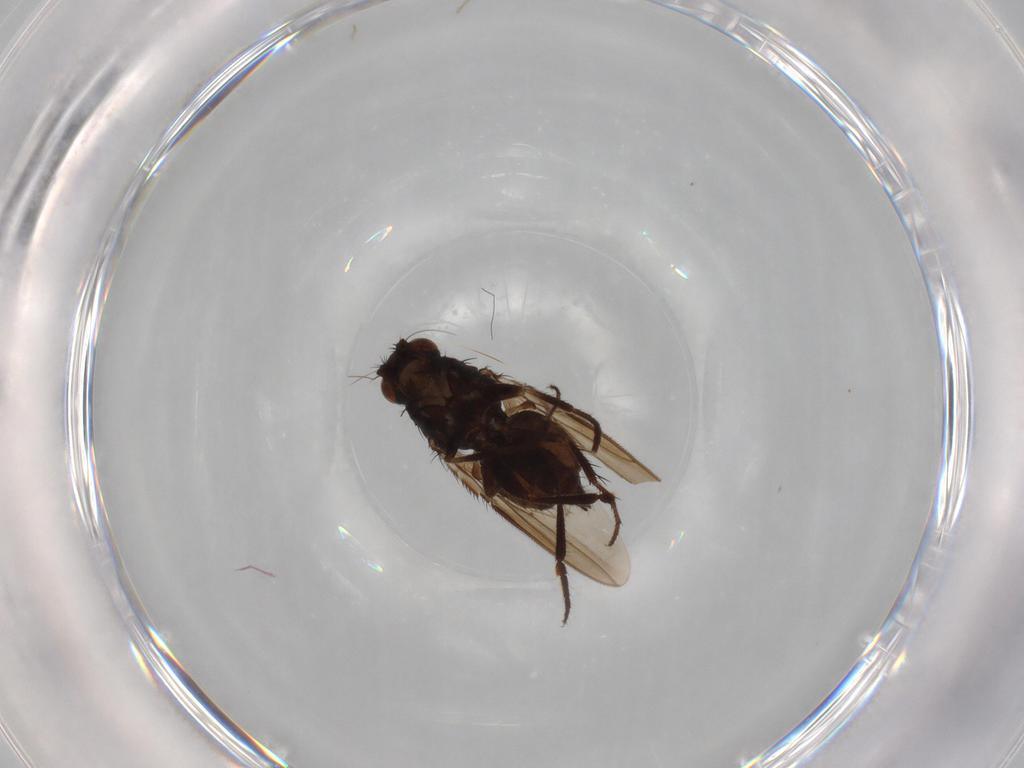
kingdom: Animalia
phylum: Arthropoda
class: Insecta
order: Diptera
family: Sphaeroceridae
